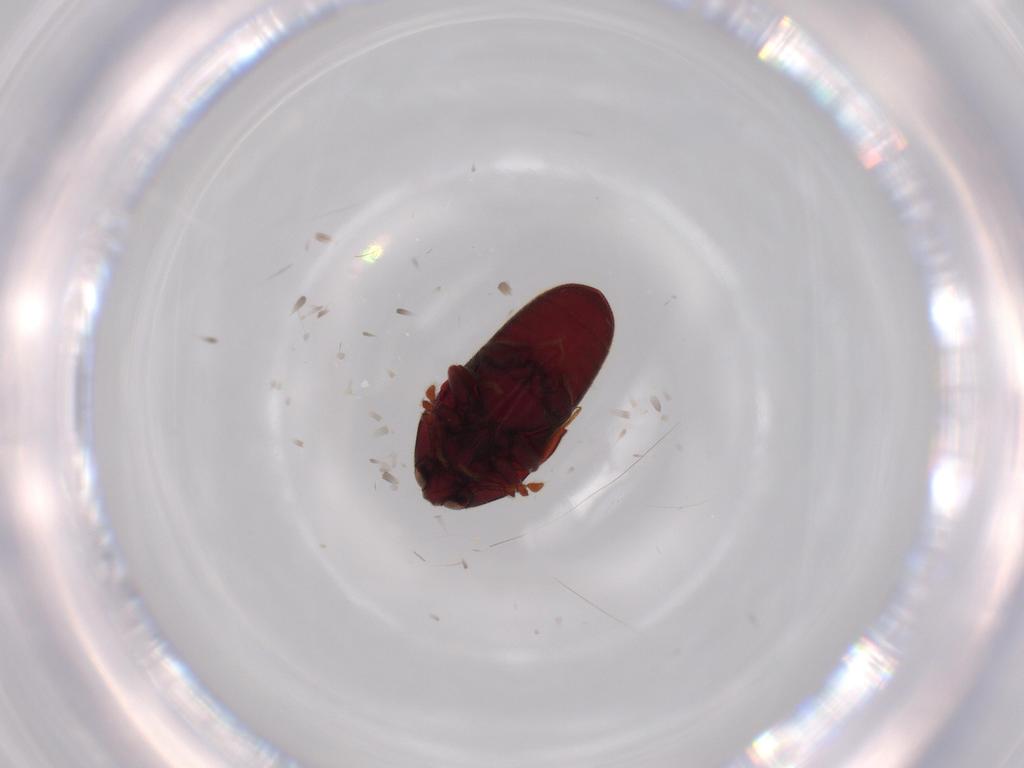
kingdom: Animalia
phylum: Arthropoda
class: Insecta
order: Coleoptera
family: Throscidae
